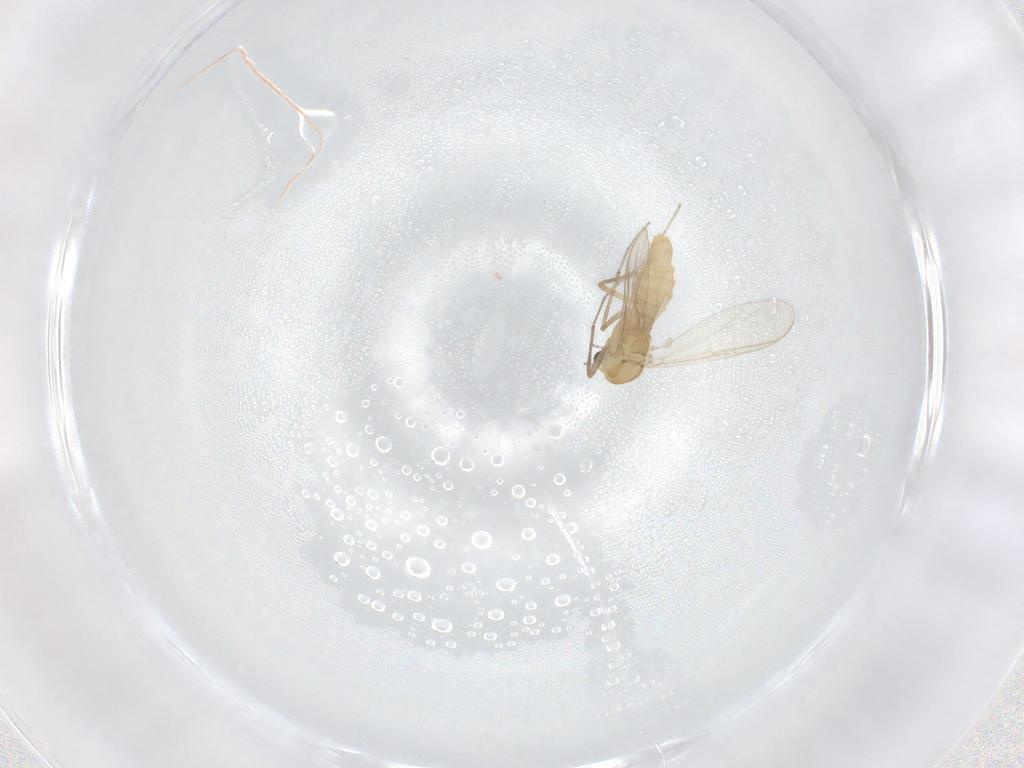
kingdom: Animalia
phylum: Arthropoda
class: Insecta
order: Diptera
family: Chironomidae
